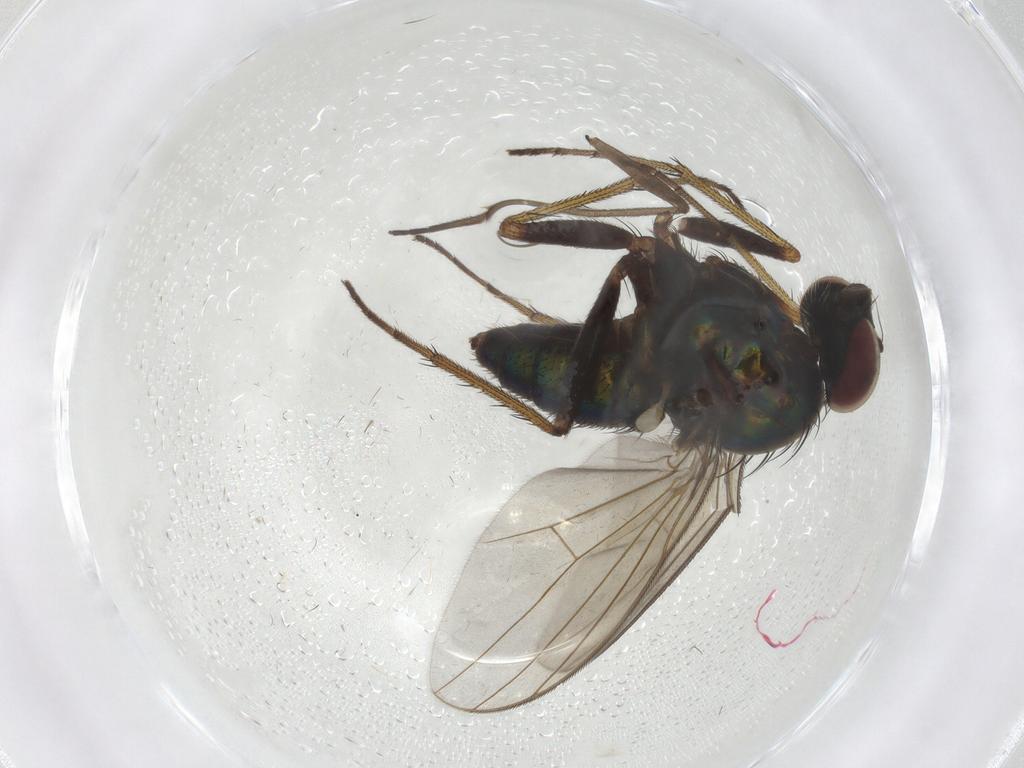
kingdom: Animalia
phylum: Arthropoda
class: Insecta
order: Diptera
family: Dolichopodidae
